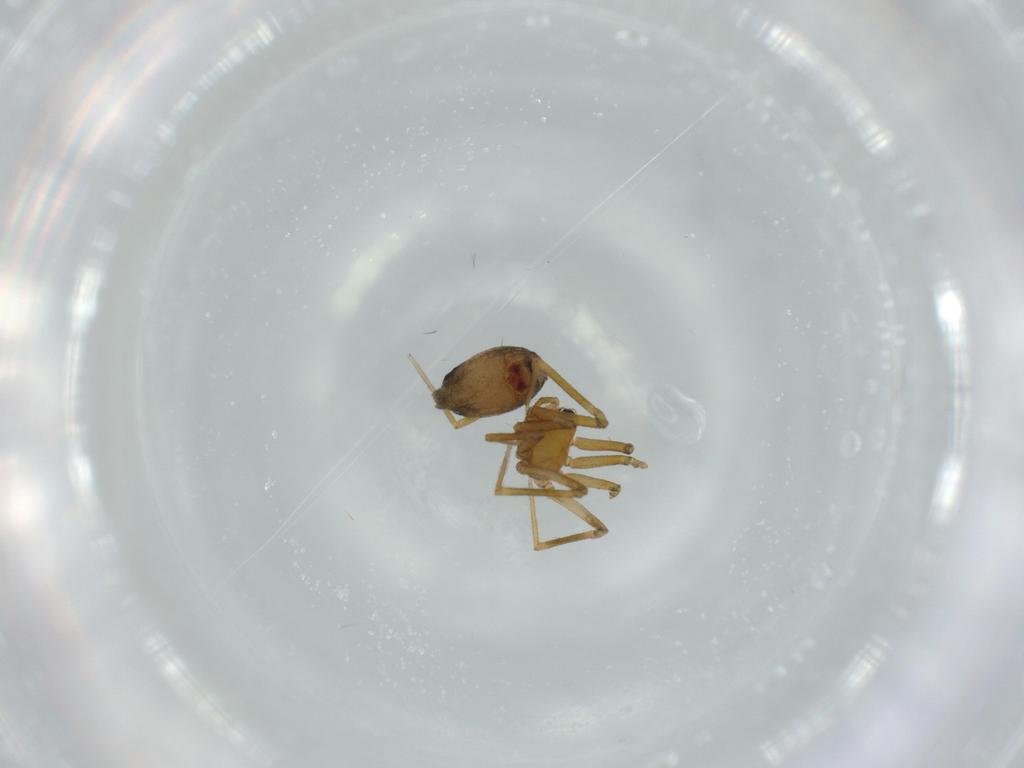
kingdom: Animalia
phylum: Arthropoda
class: Arachnida
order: Araneae
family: Linyphiidae
